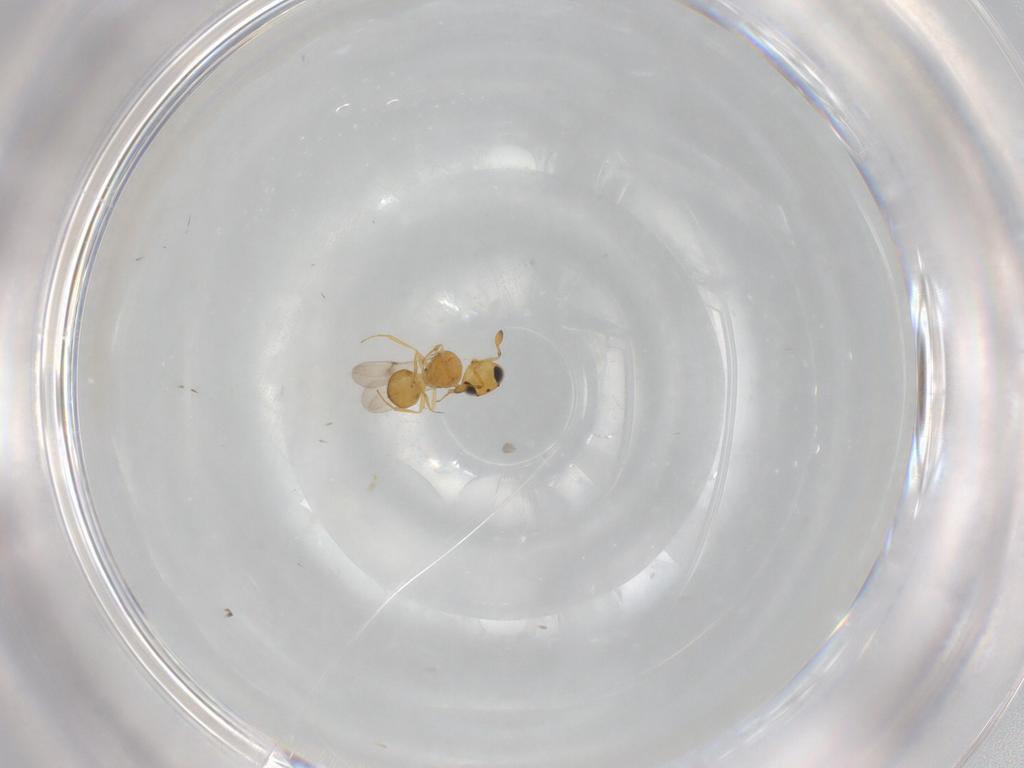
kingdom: Animalia
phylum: Arthropoda
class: Insecta
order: Hymenoptera
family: Scelionidae
